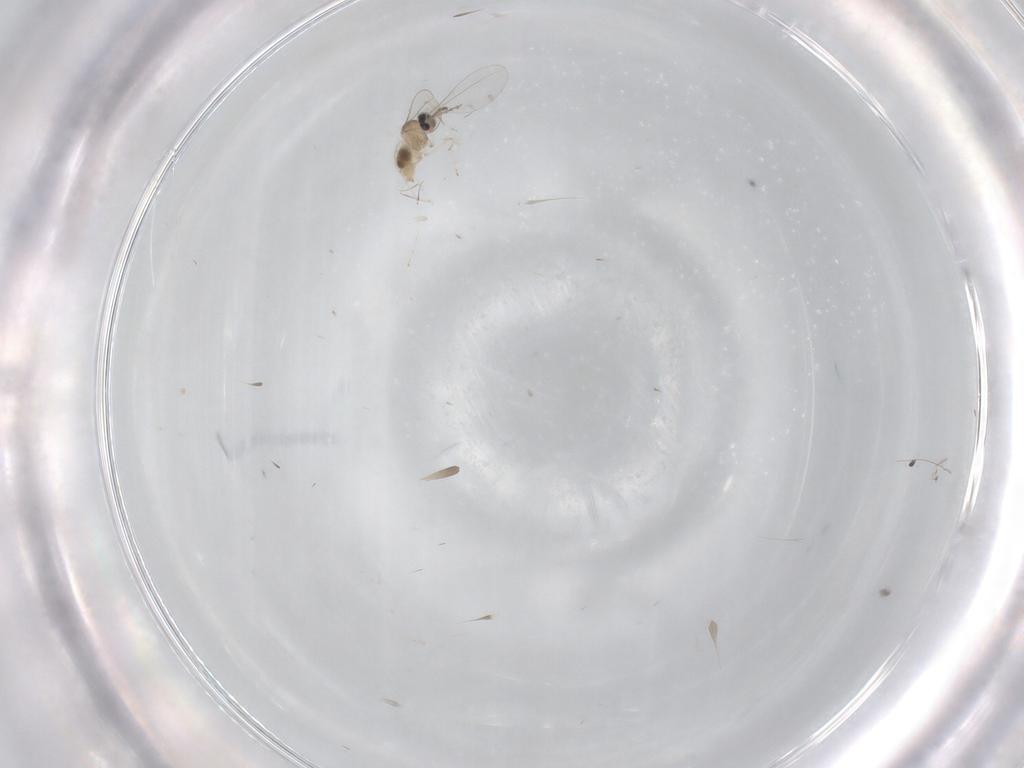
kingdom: Animalia
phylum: Arthropoda
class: Insecta
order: Diptera
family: Cecidomyiidae
